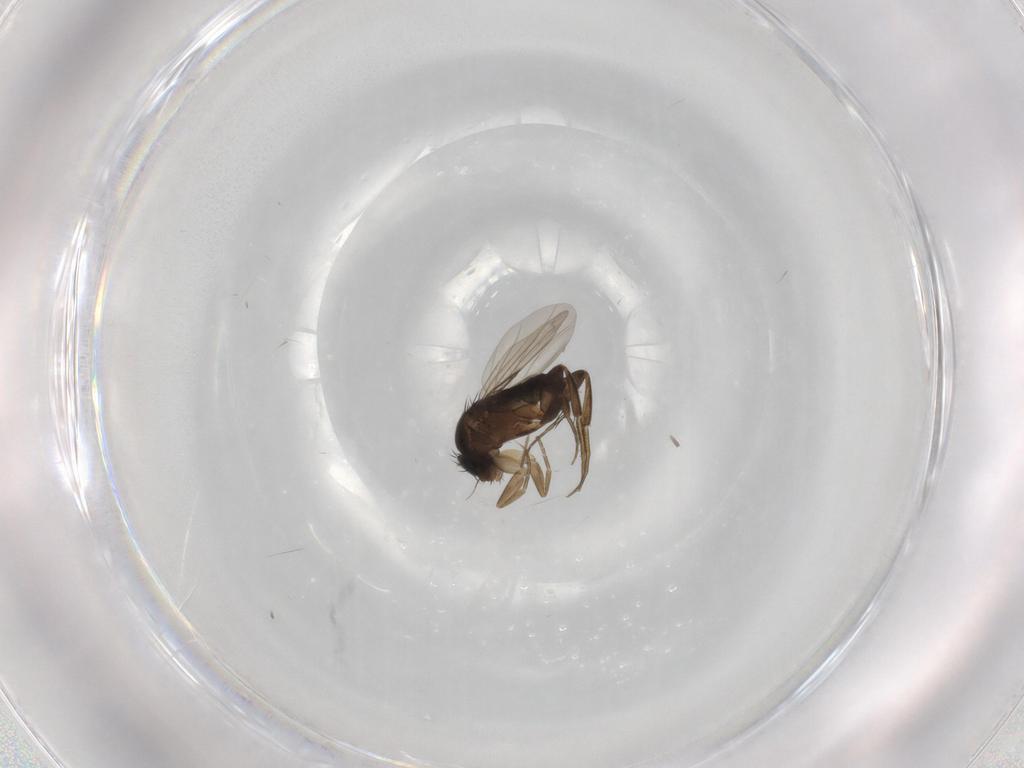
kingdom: Animalia
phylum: Arthropoda
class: Insecta
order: Diptera
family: Phoridae
